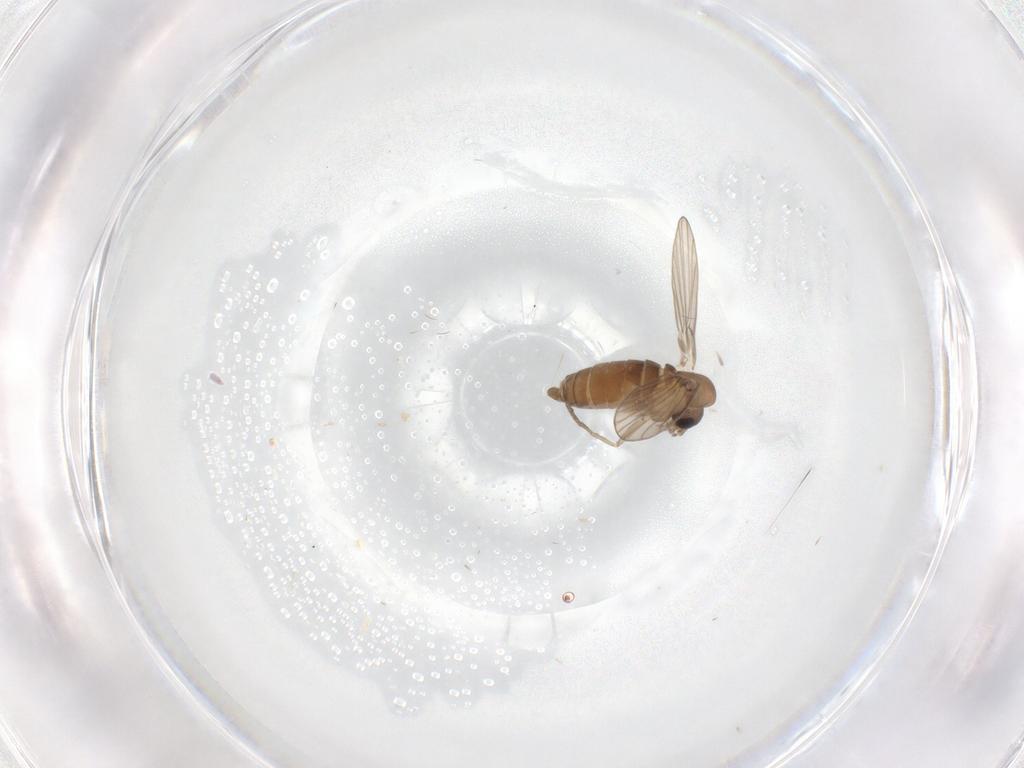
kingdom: Animalia
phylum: Arthropoda
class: Insecta
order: Diptera
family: Psychodidae
